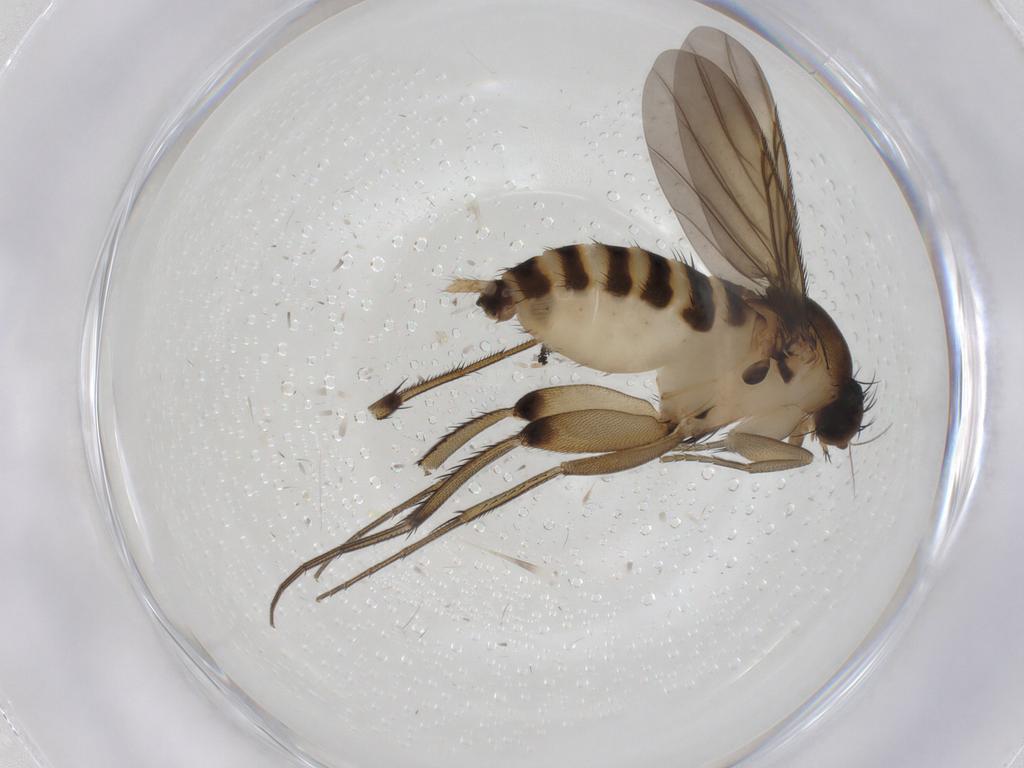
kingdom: Animalia
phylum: Arthropoda
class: Insecta
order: Diptera
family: Phoridae
